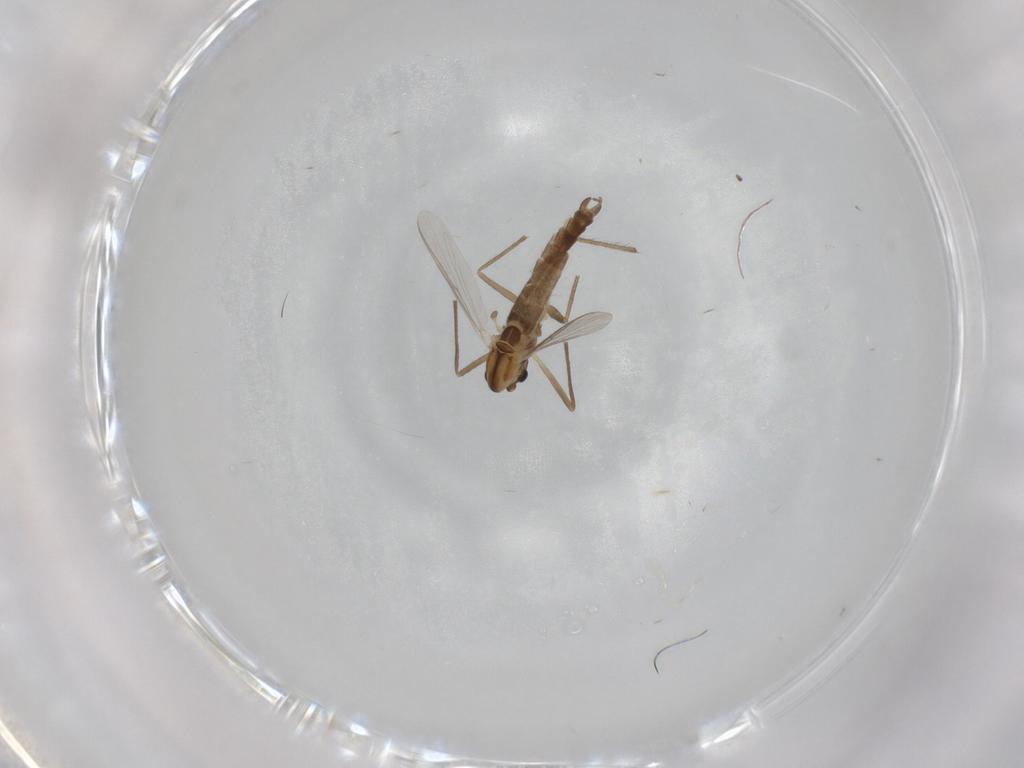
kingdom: Animalia
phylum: Arthropoda
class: Insecta
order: Diptera
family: Chironomidae
